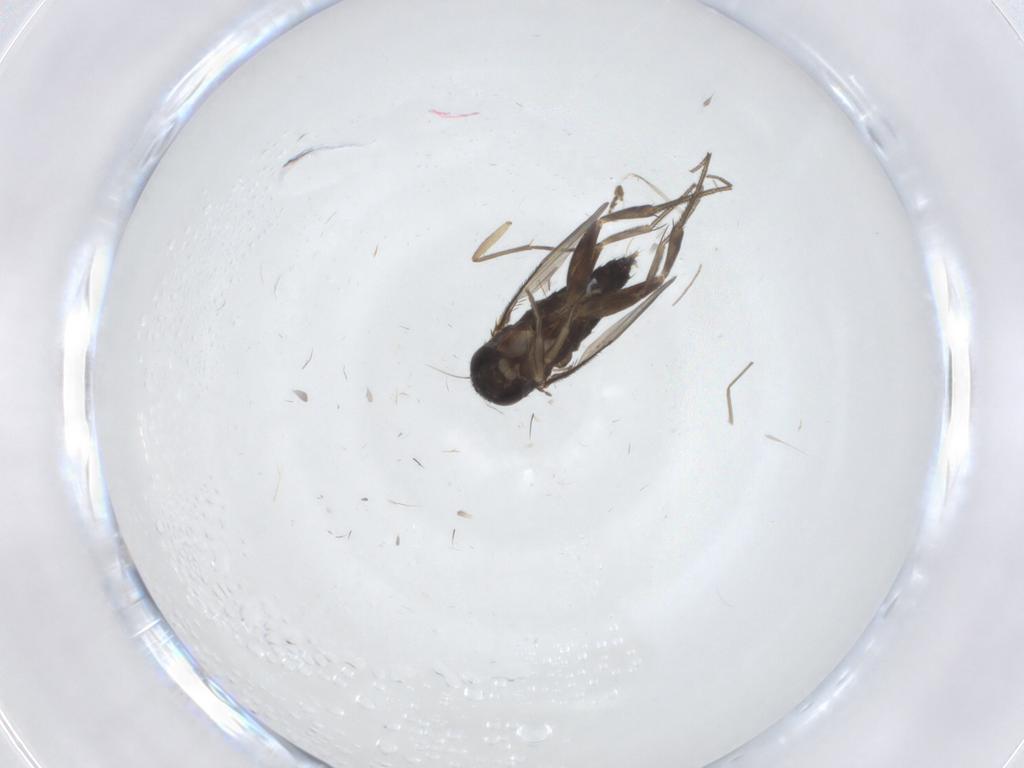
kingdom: Animalia
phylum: Arthropoda
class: Insecta
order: Diptera
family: Phoridae
